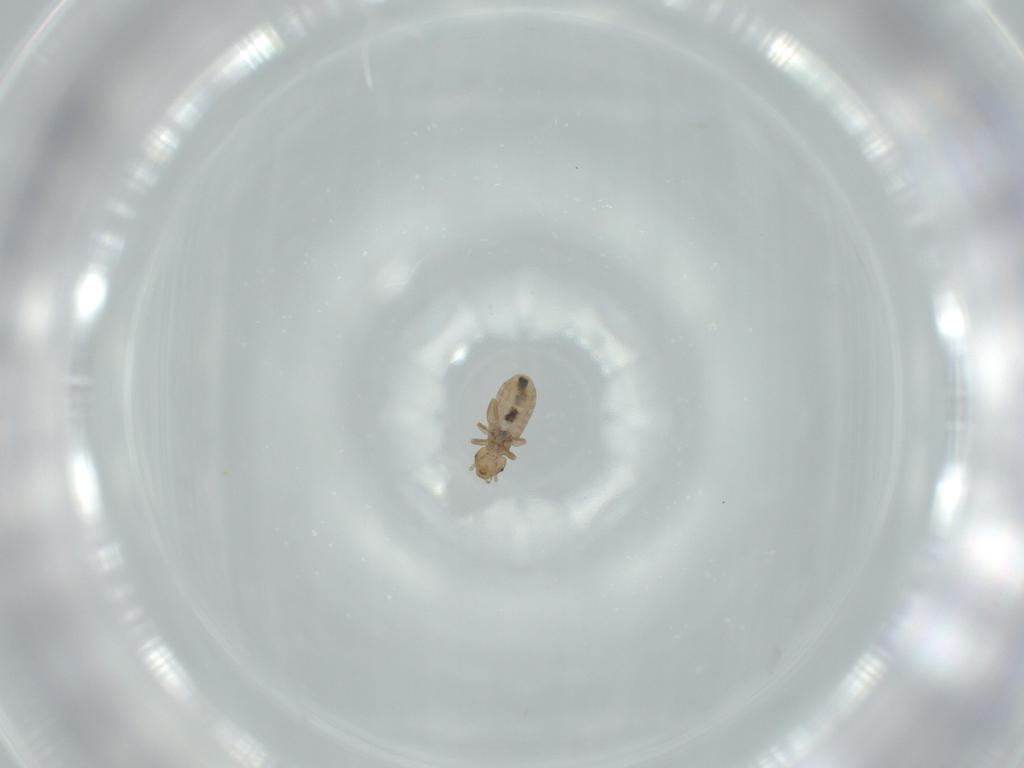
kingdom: Animalia
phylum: Arthropoda
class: Insecta
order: Psocodea
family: Liposcelididae
